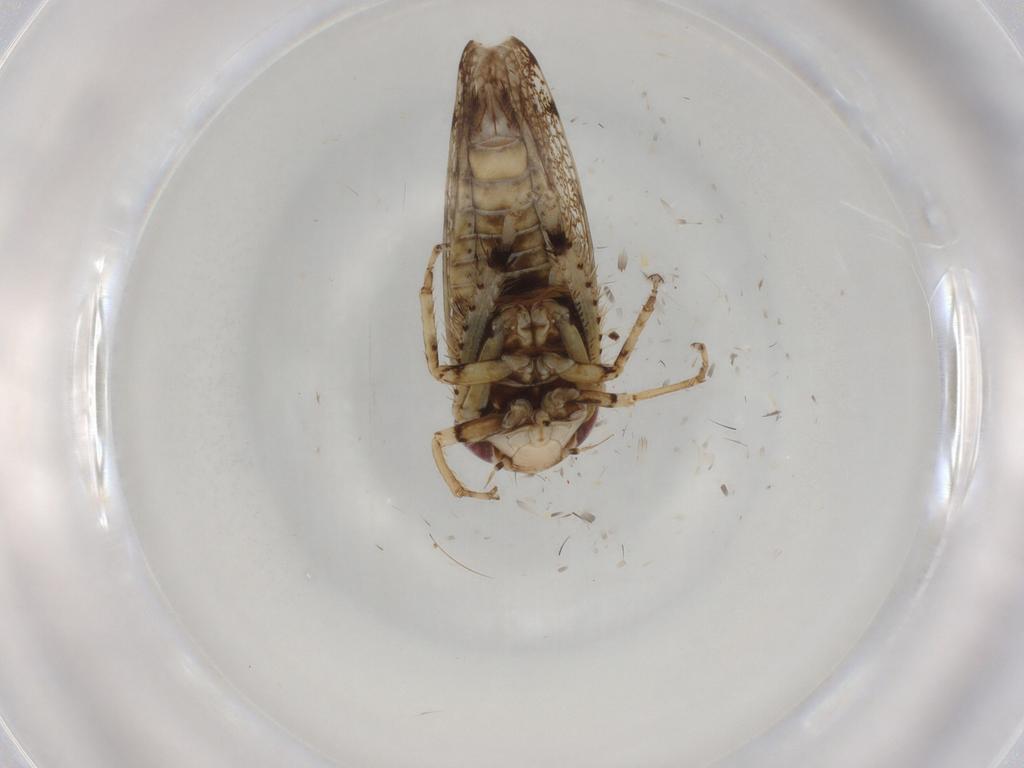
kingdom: Animalia
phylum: Arthropoda
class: Insecta
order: Hemiptera
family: Cicadellidae
